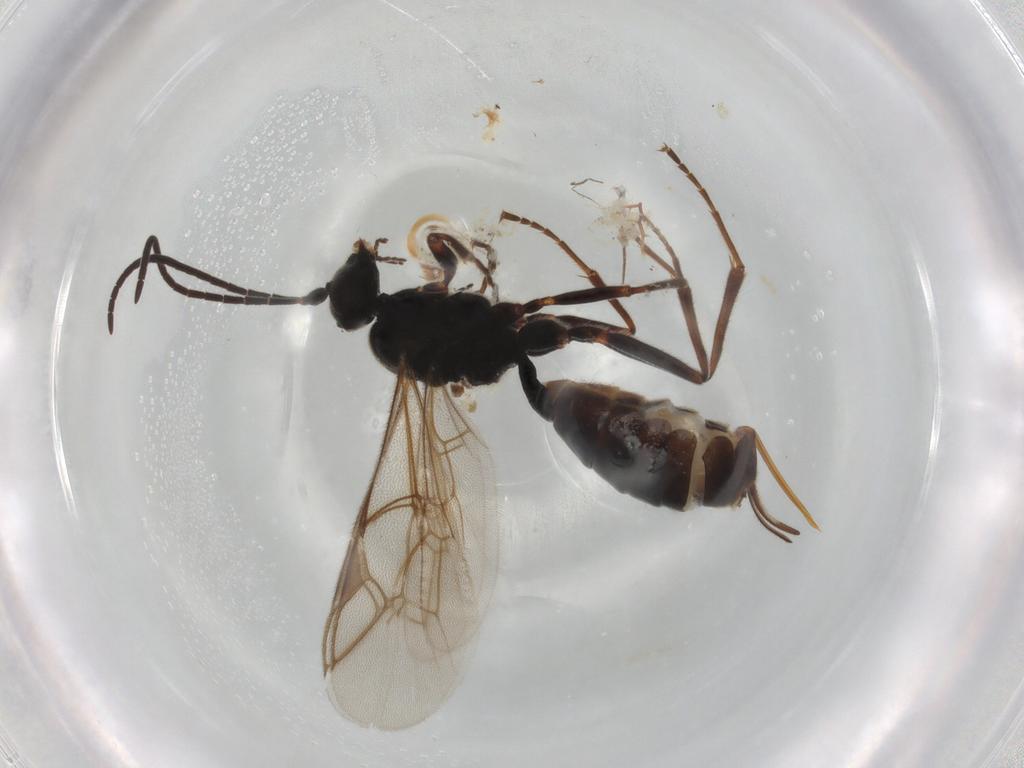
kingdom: Animalia
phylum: Arthropoda
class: Insecta
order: Hymenoptera
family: Ichneumonidae
